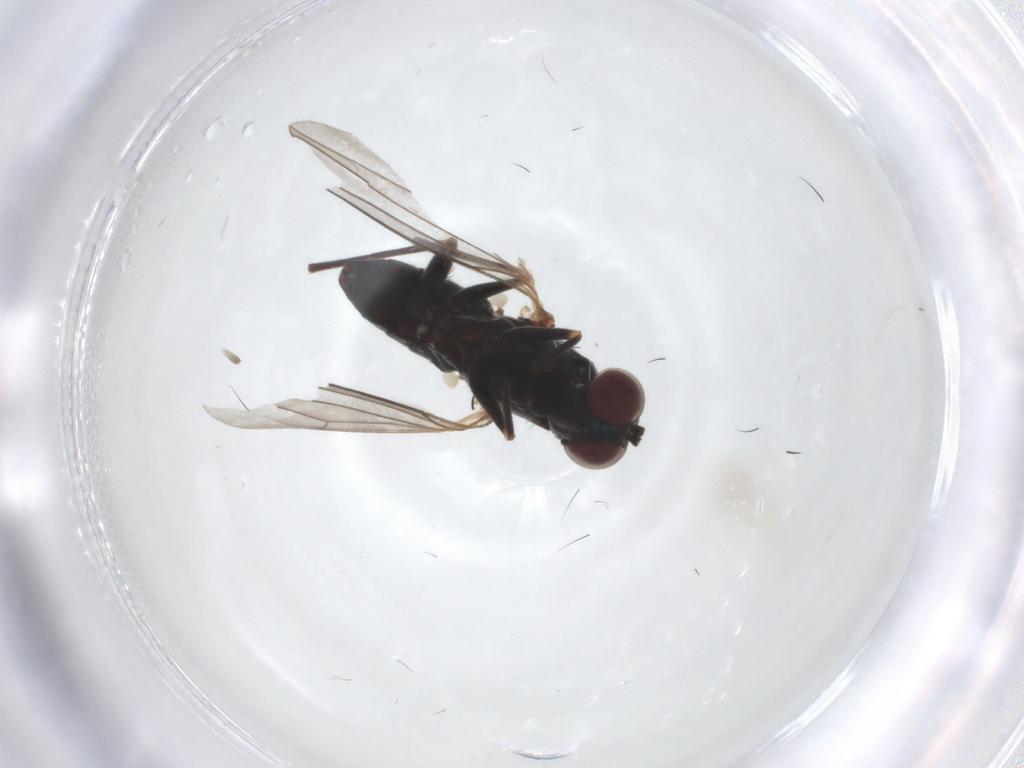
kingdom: Animalia
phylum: Arthropoda
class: Insecta
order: Diptera
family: Dolichopodidae
